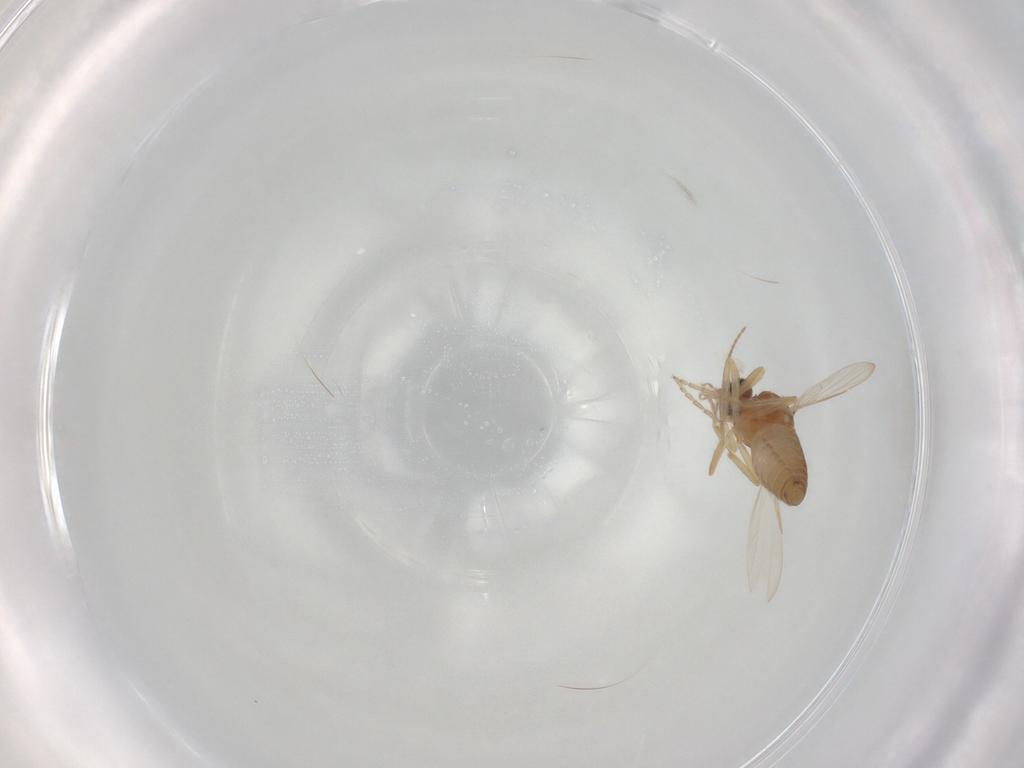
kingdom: Animalia
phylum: Arthropoda
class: Insecta
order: Diptera
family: Ceratopogonidae
